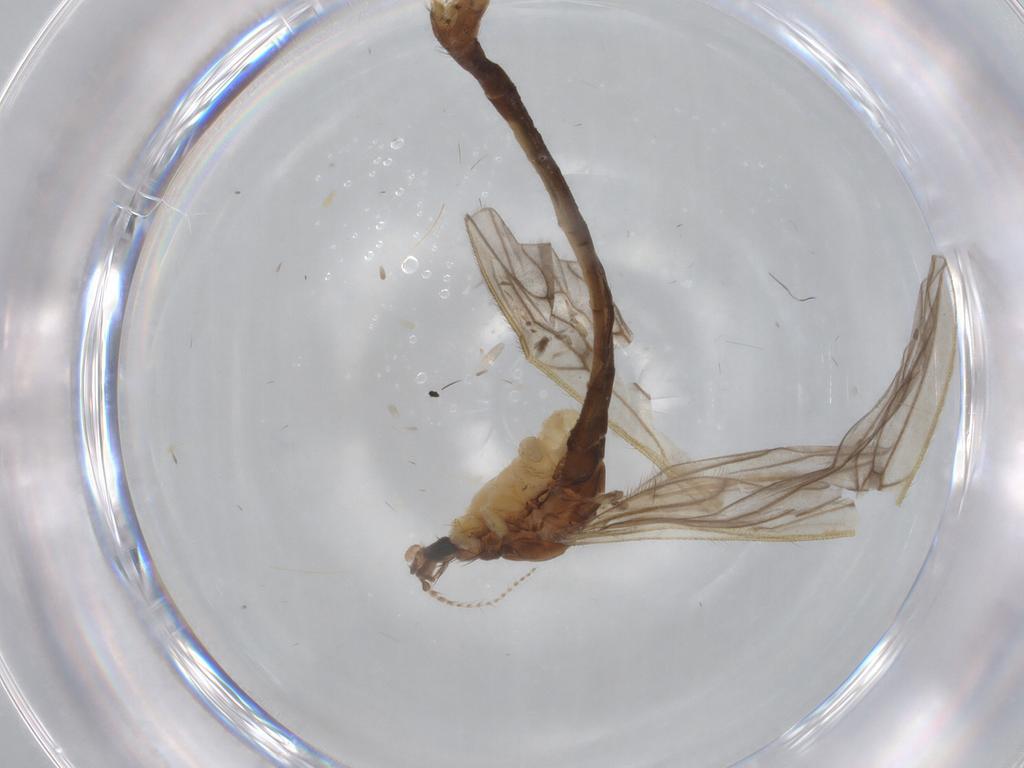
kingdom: Animalia
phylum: Arthropoda
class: Insecta
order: Diptera
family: Limoniidae
